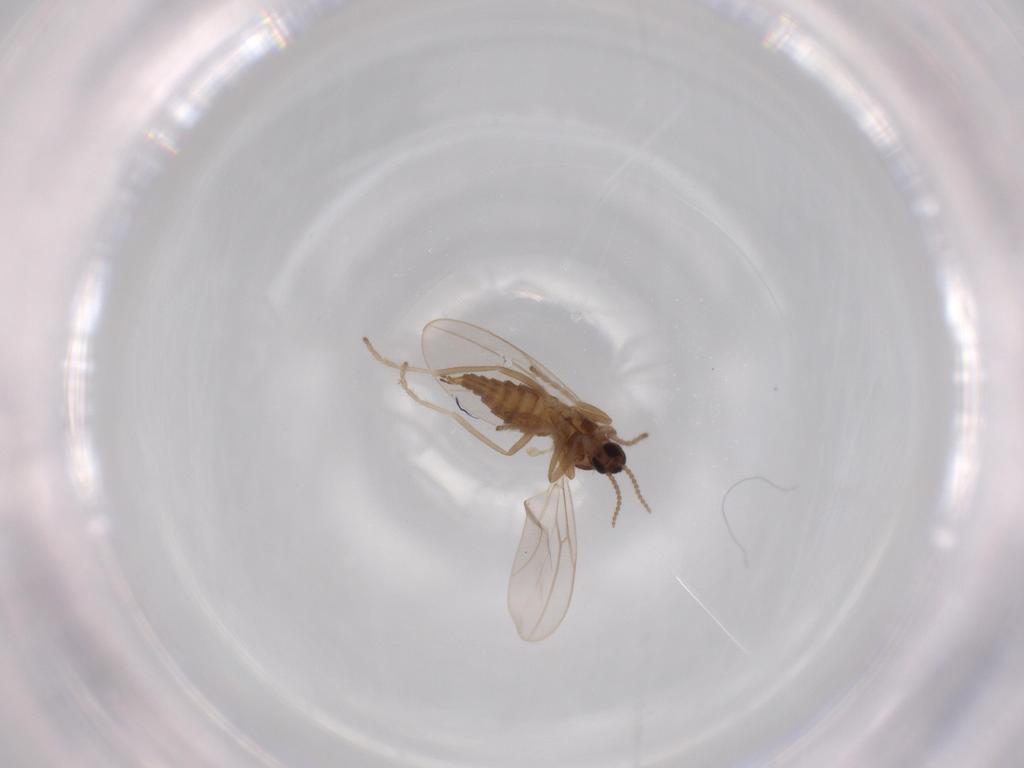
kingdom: Animalia
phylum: Arthropoda
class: Insecta
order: Diptera
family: Cecidomyiidae
